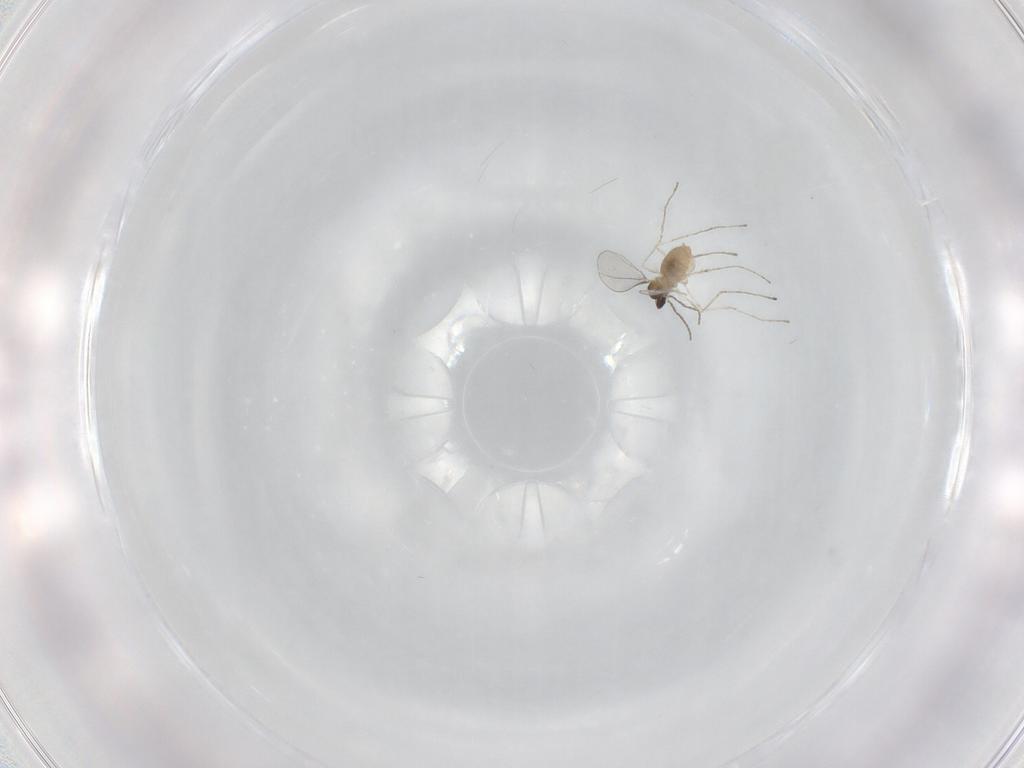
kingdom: Animalia
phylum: Arthropoda
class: Insecta
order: Diptera
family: Cecidomyiidae
